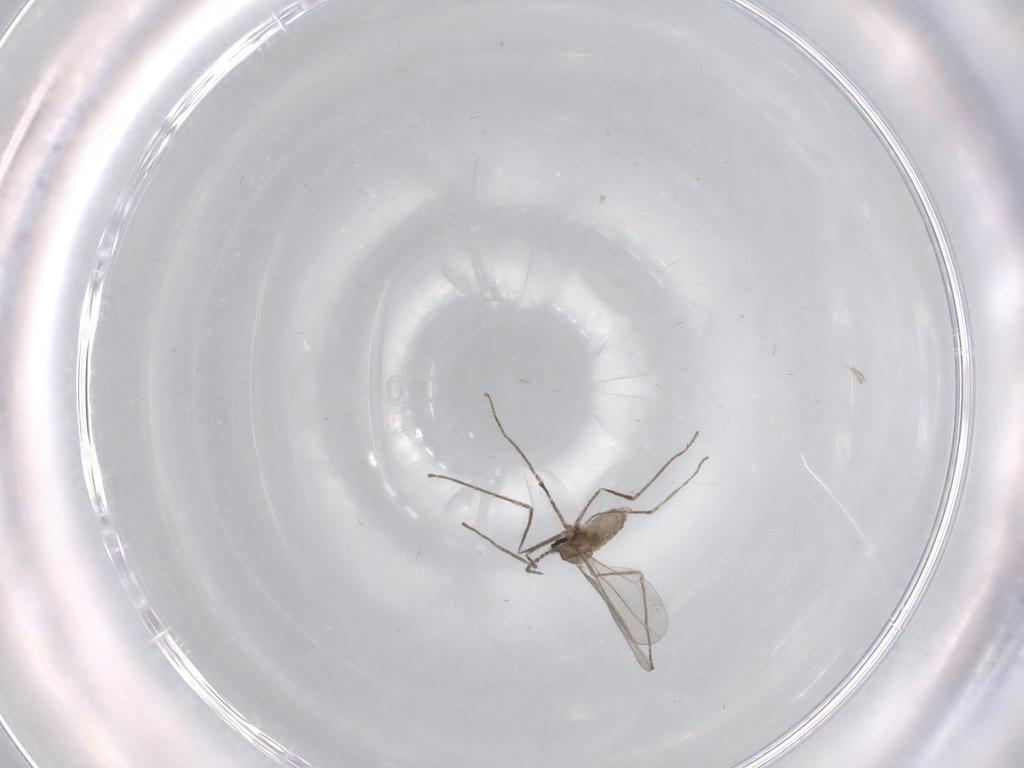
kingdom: Animalia
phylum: Arthropoda
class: Insecta
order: Diptera
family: Cecidomyiidae
